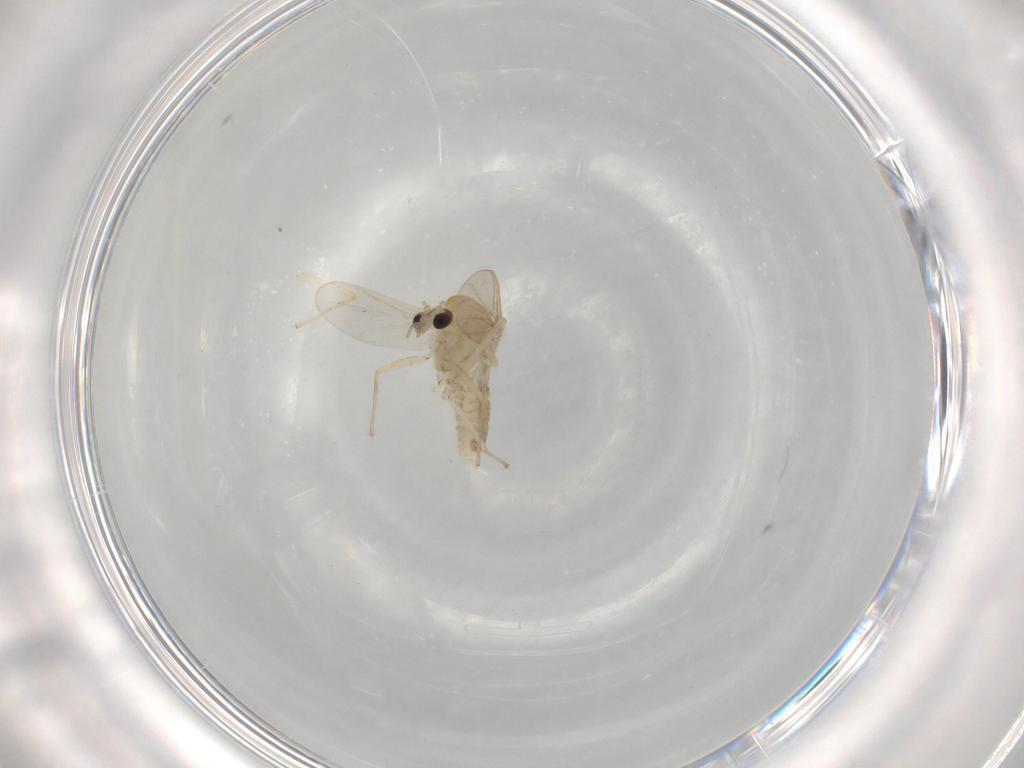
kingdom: Animalia
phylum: Arthropoda
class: Insecta
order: Diptera
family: Chironomidae
